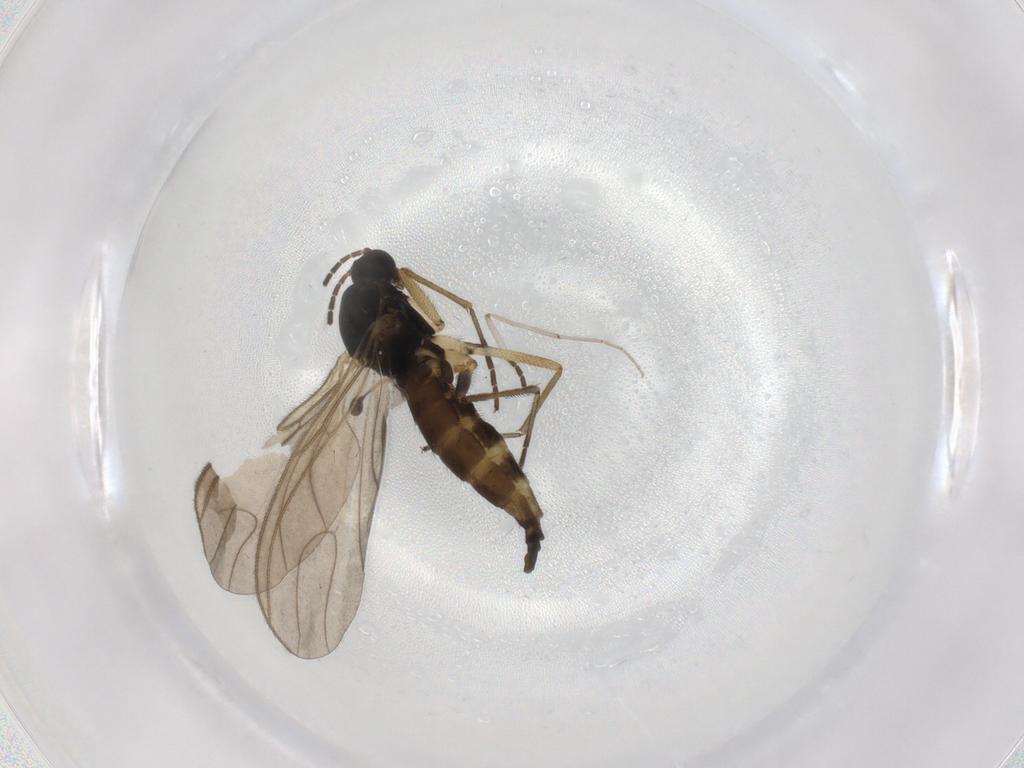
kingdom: Animalia
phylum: Arthropoda
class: Insecta
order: Diptera
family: Sciaridae
